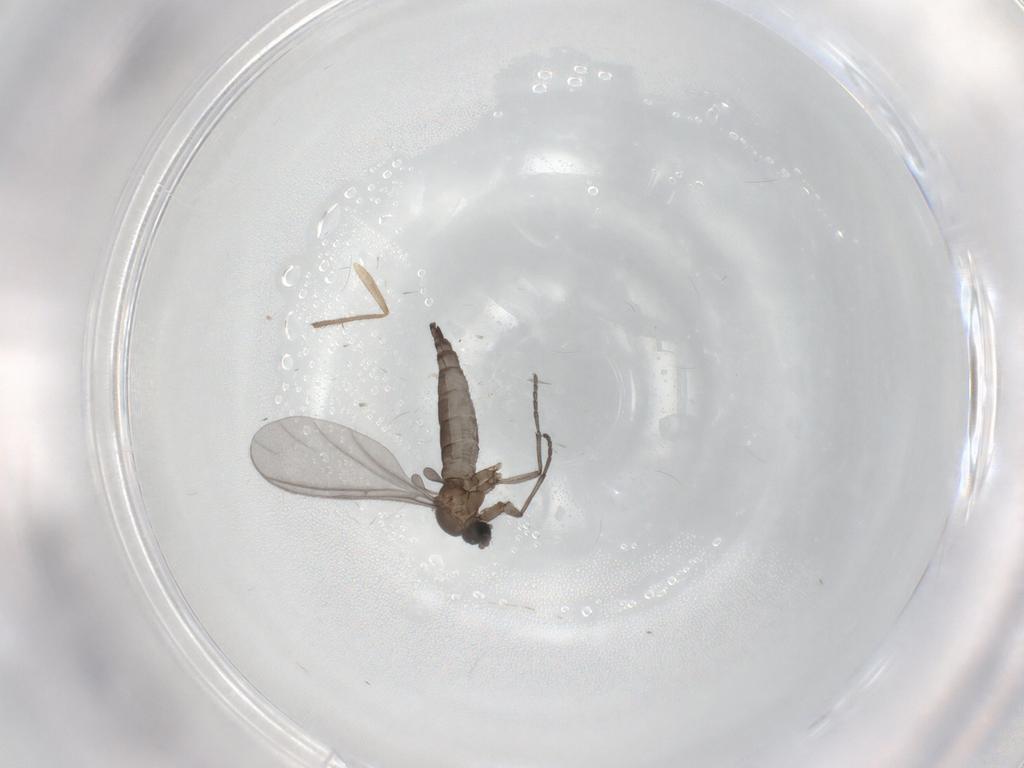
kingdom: Animalia
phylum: Arthropoda
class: Insecta
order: Diptera
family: Sciaridae
